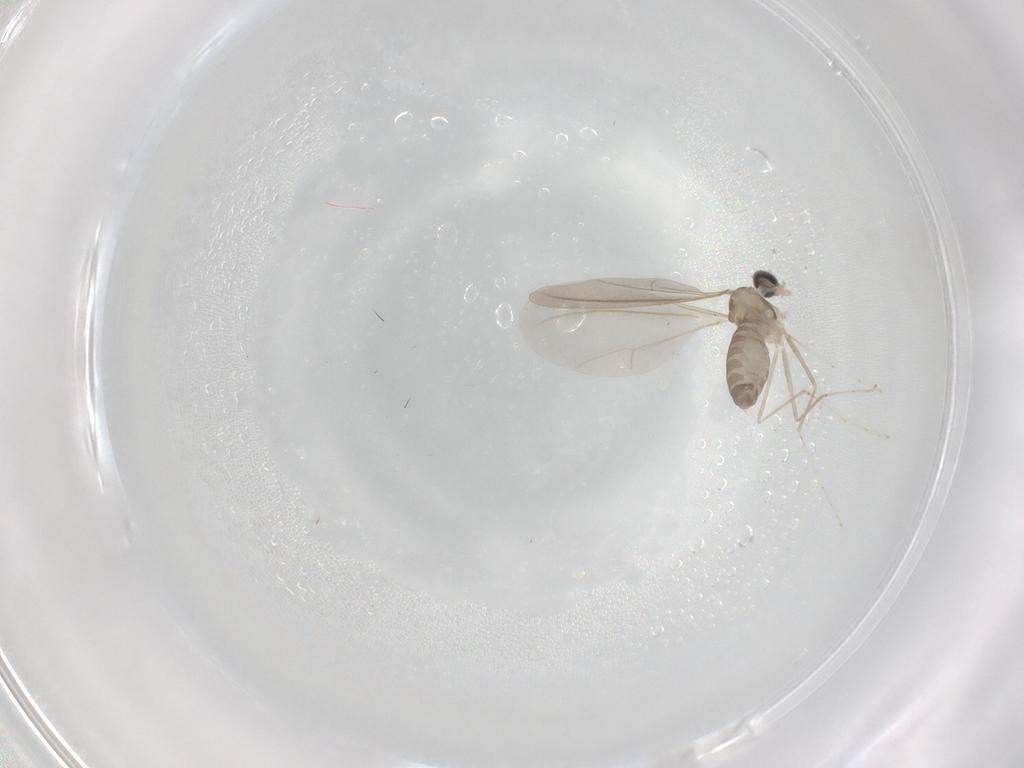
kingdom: Animalia
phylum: Arthropoda
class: Insecta
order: Diptera
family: Cecidomyiidae
